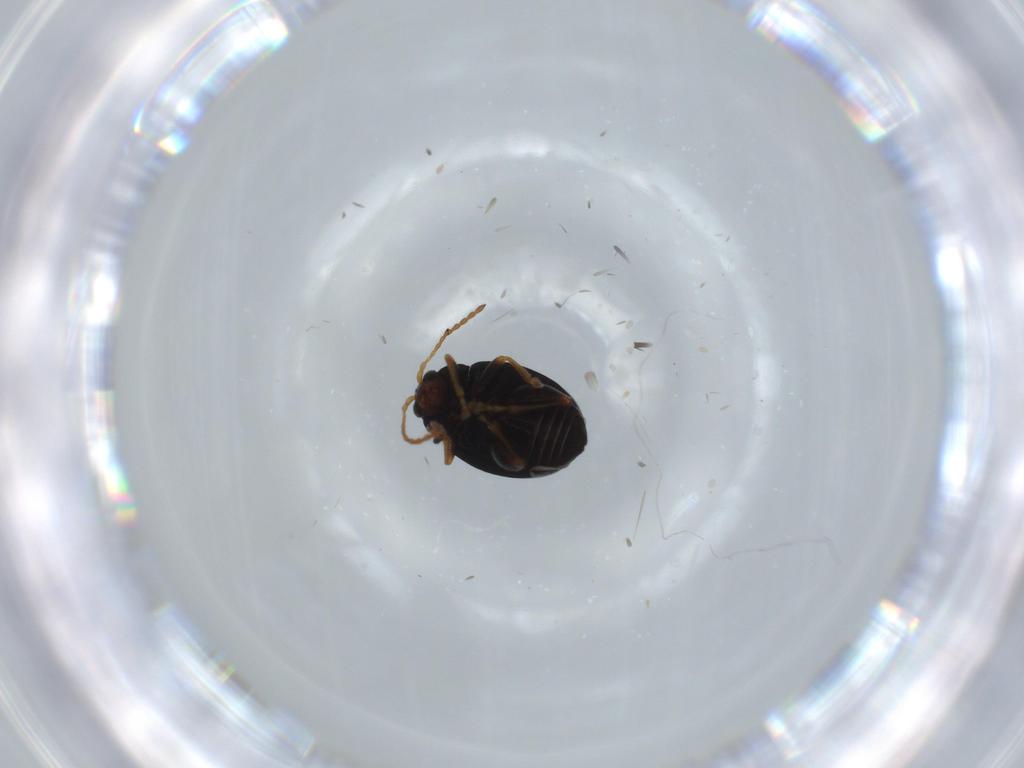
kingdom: Animalia
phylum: Arthropoda
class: Insecta
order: Coleoptera
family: Chrysomelidae
